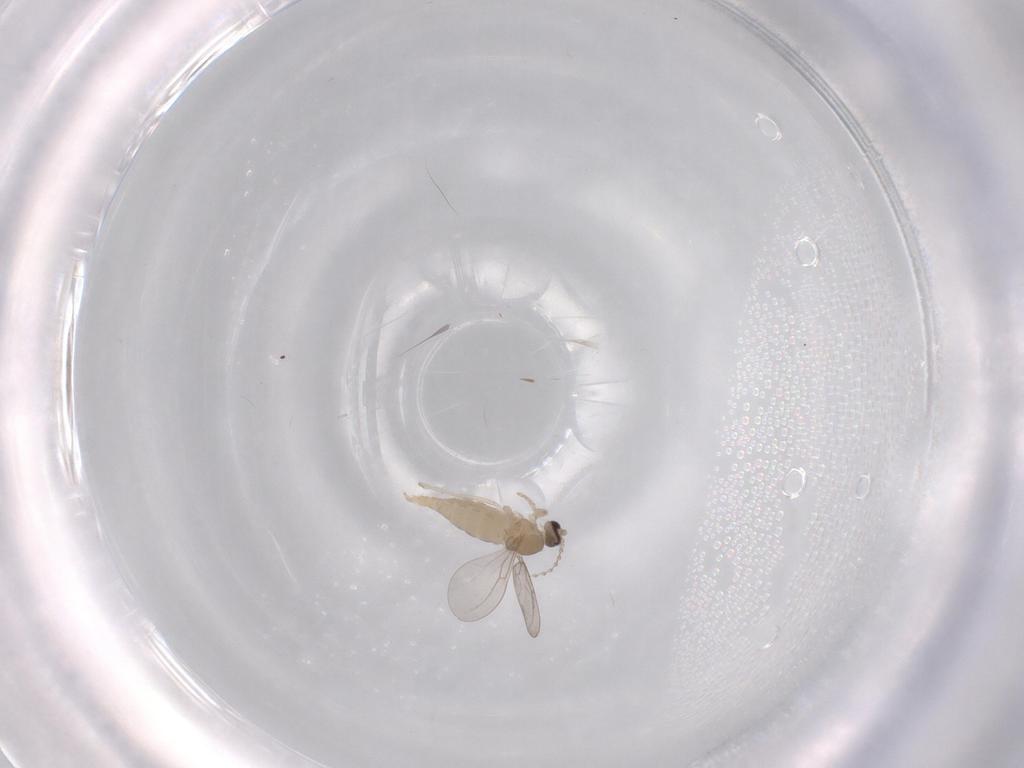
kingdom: Animalia
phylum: Arthropoda
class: Insecta
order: Diptera
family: Cecidomyiidae
